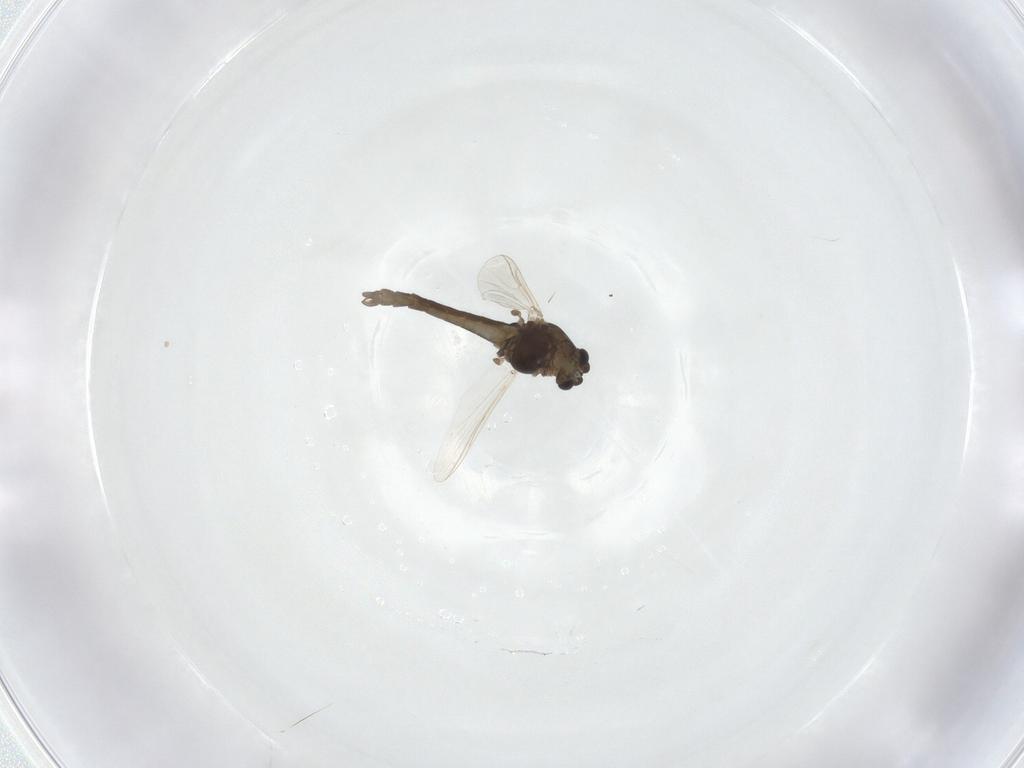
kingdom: Animalia
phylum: Arthropoda
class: Insecta
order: Diptera
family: Chironomidae
